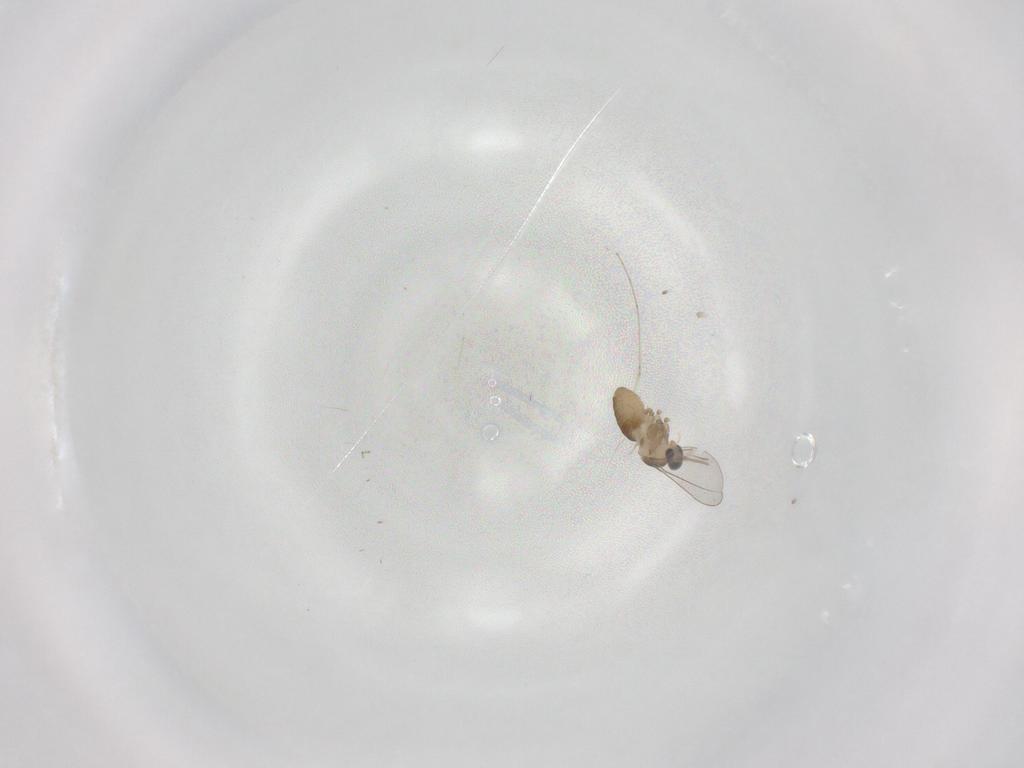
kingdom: Animalia
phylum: Arthropoda
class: Insecta
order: Diptera
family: Cecidomyiidae
